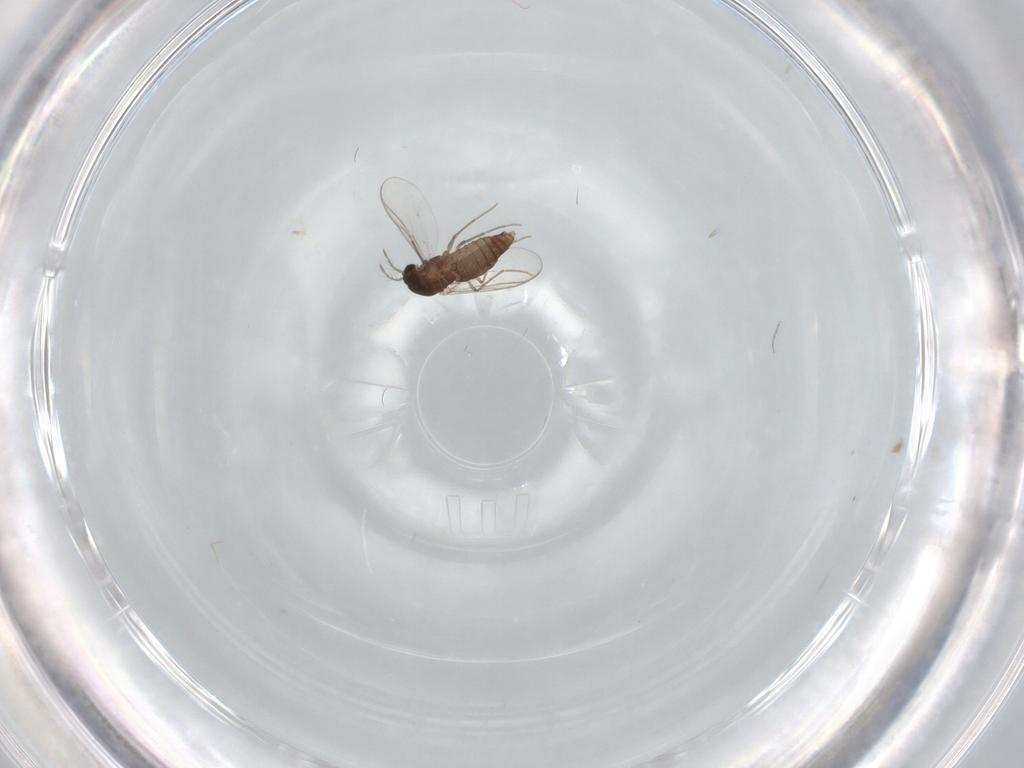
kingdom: Animalia
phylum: Arthropoda
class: Insecta
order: Diptera
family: Chironomidae
